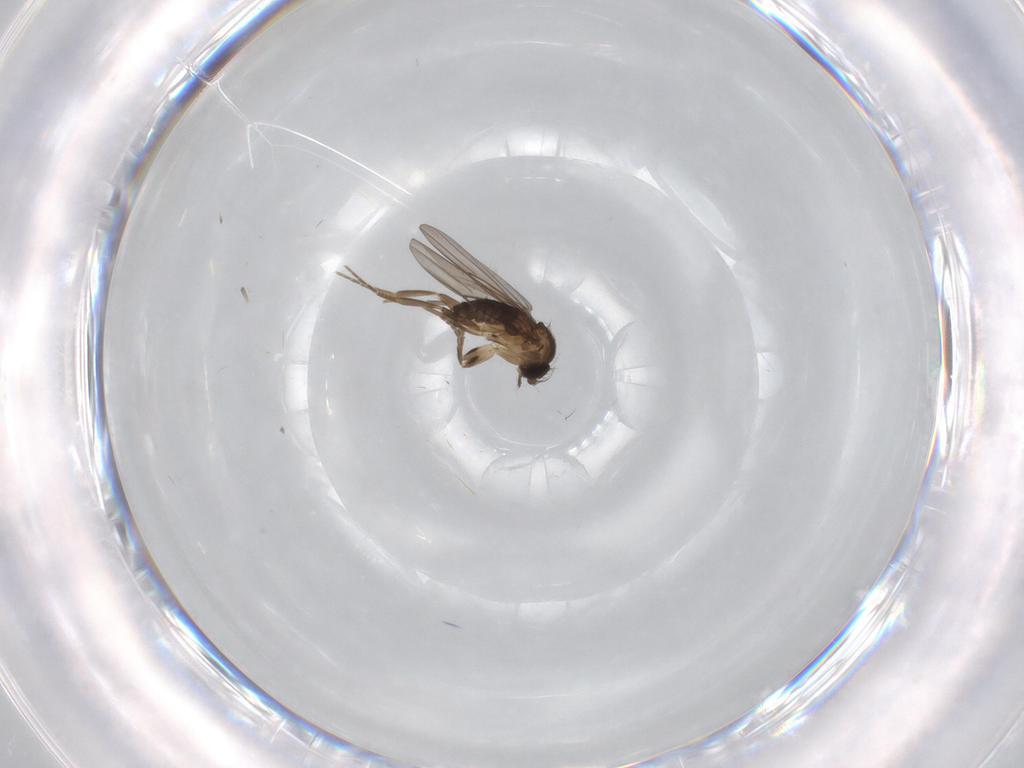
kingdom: Animalia
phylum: Arthropoda
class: Insecta
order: Diptera
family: Phoridae
